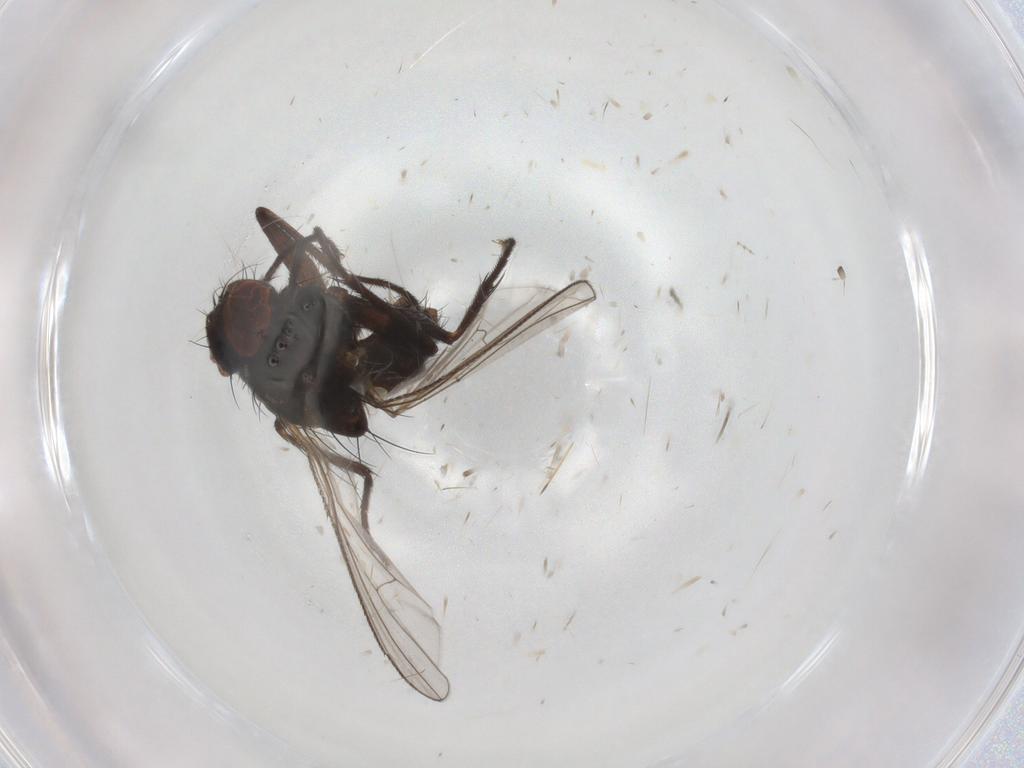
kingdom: Animalia
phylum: Arthropoda
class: Insecta
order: Diptera
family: Muscidae
